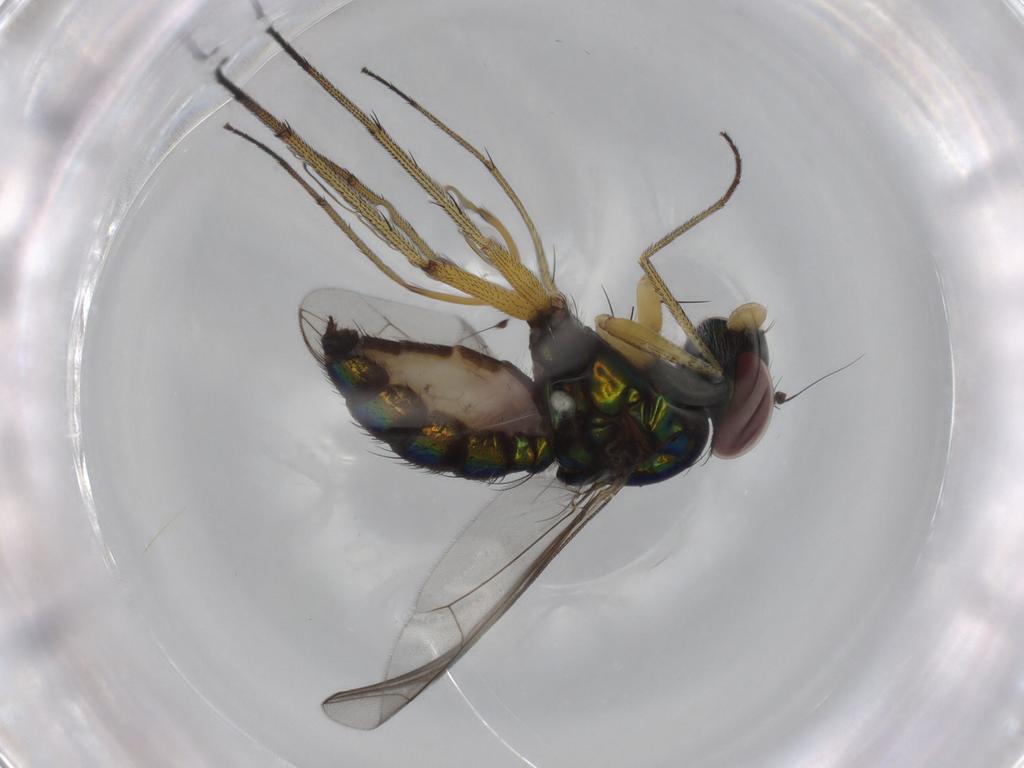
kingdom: Animalia
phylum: Arthropoda
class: Insecta
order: Diptera
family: Dolichopodidae
